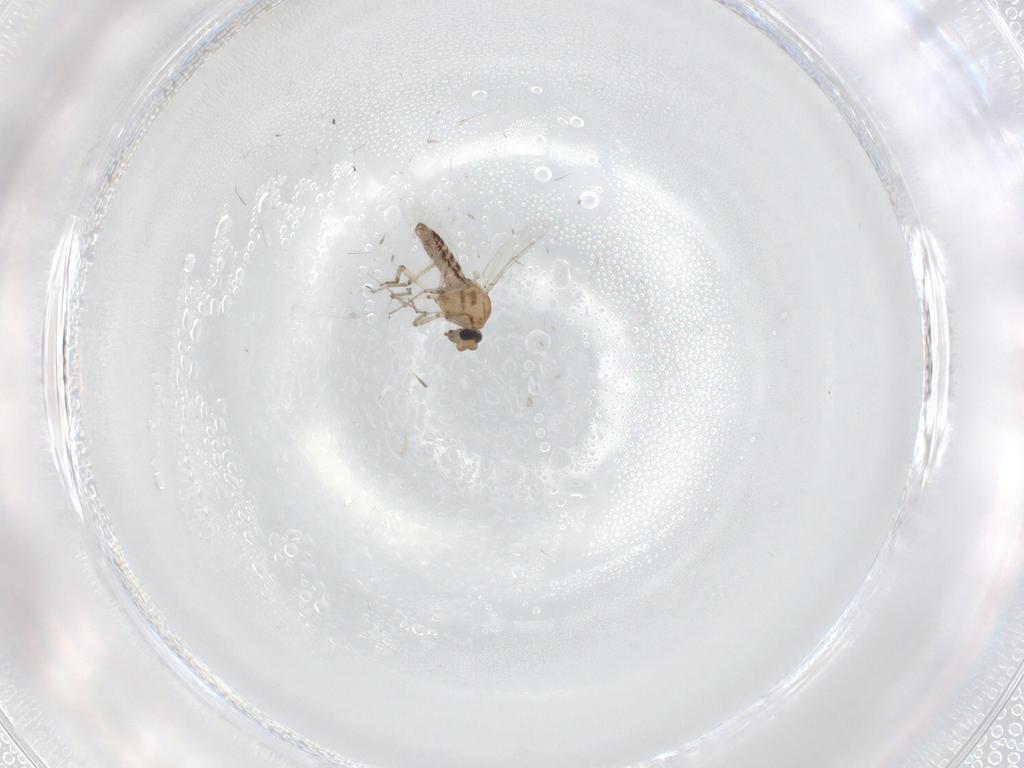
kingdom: Animalia
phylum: Arthropoda
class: Insecta
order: Diptera
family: Ceratopogonidae
